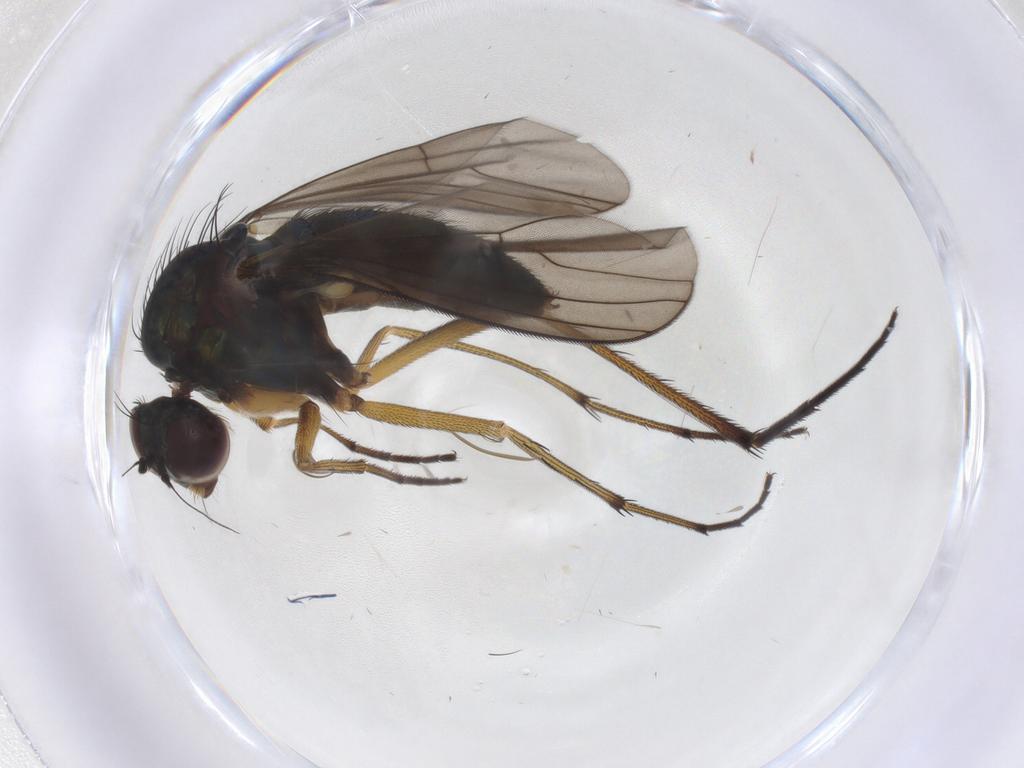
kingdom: Animalia
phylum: Arthropoda
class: Insecta
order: Diptera
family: Dolichopodidae
